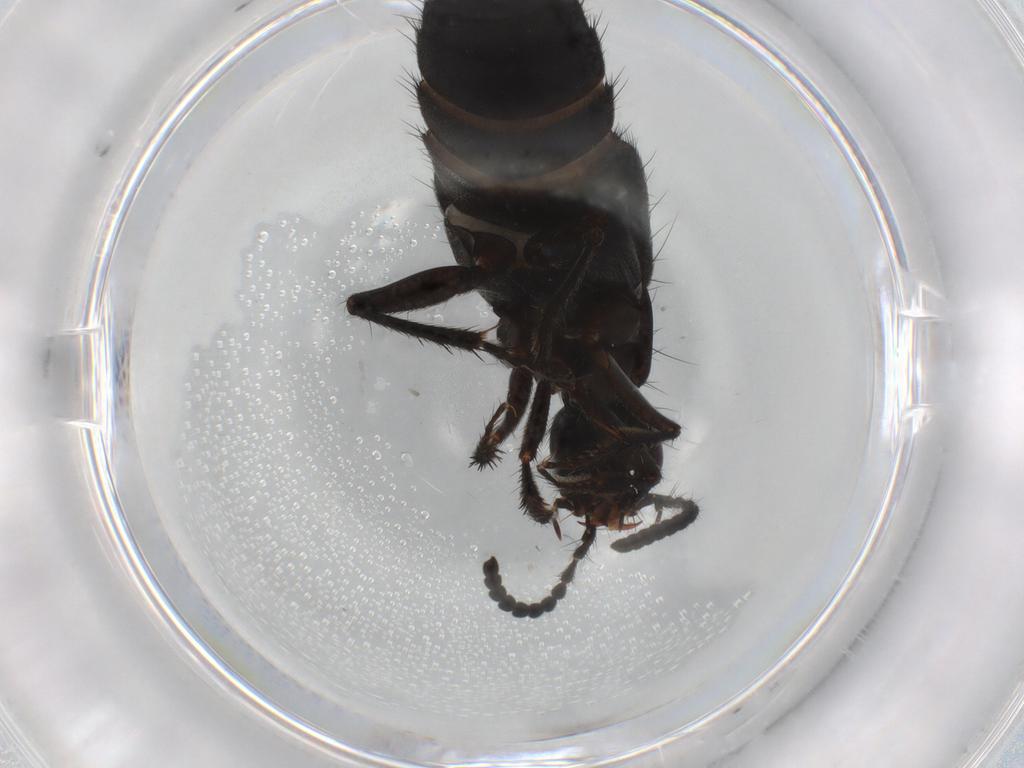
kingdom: Animalia
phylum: Arthropoda
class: Insecta
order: Coleoptera
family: Staphylinidae
